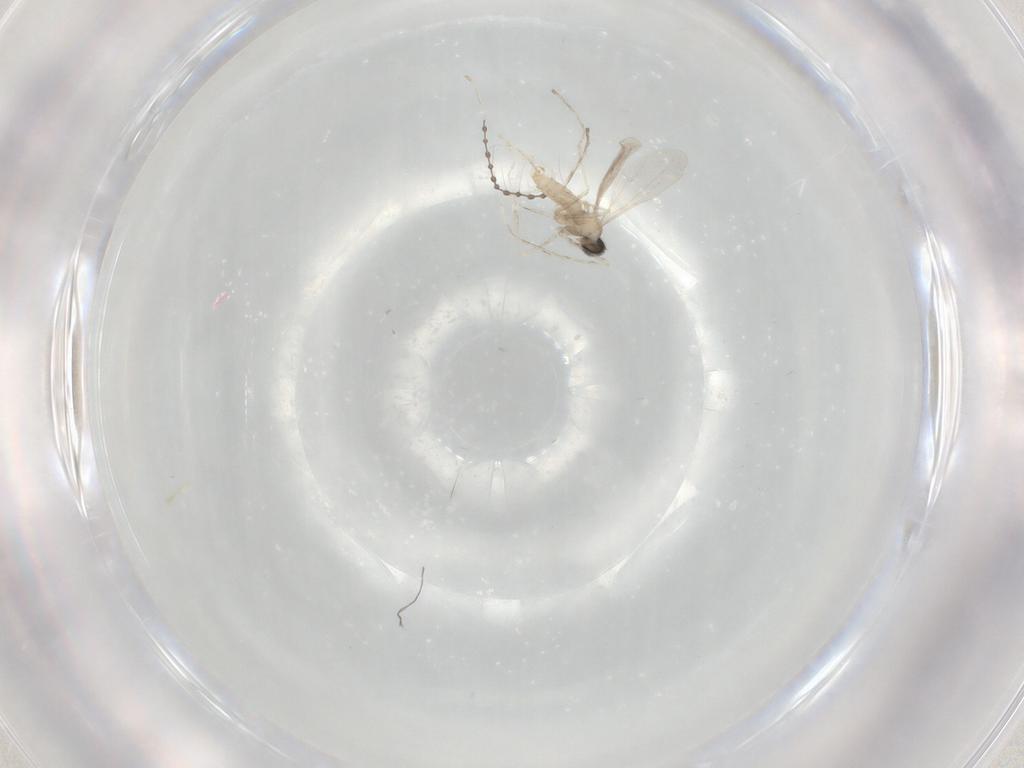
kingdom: Animalia
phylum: Arthropoda
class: Insecta
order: Diptera
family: Cecidomyiidae
